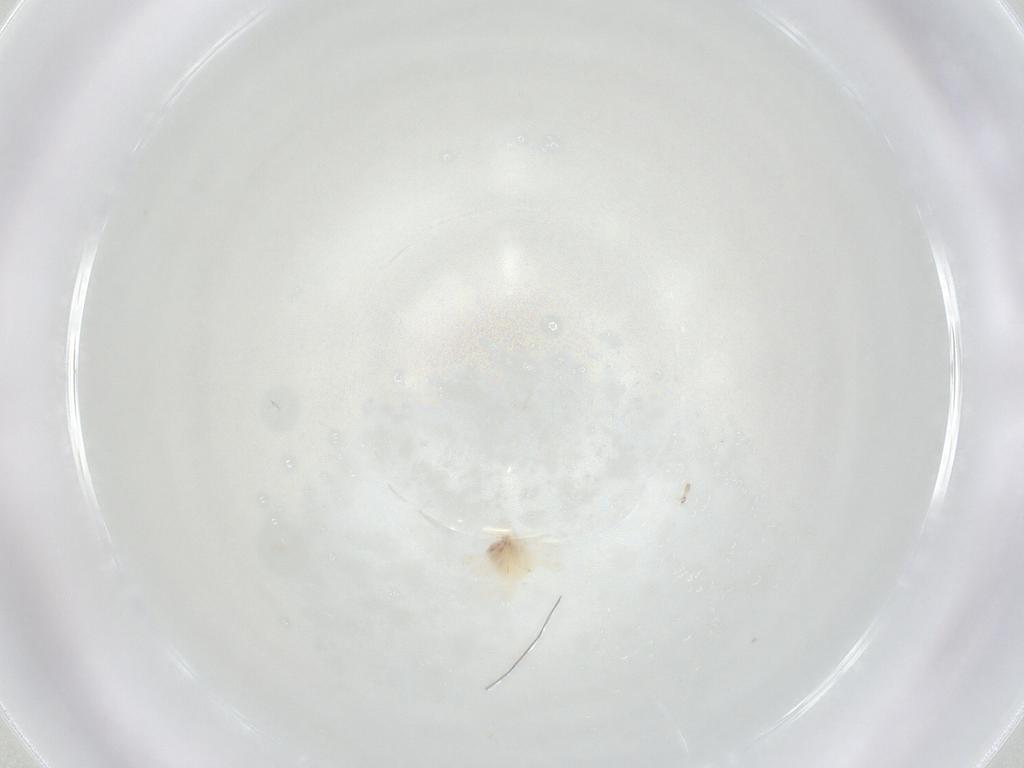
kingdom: Animalia
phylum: Arthropoda
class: Arachnida
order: Trombidiformes
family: Anystidae
